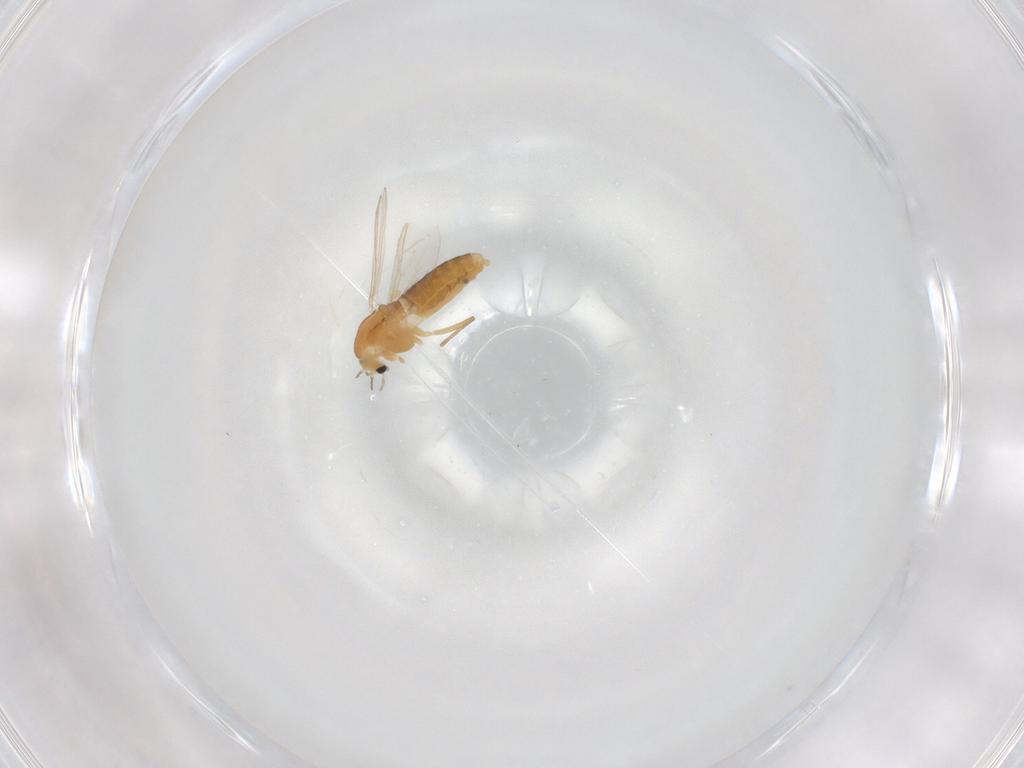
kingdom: Animalia
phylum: Arthropoda
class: Insecta
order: Diptera
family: Chironomidae
